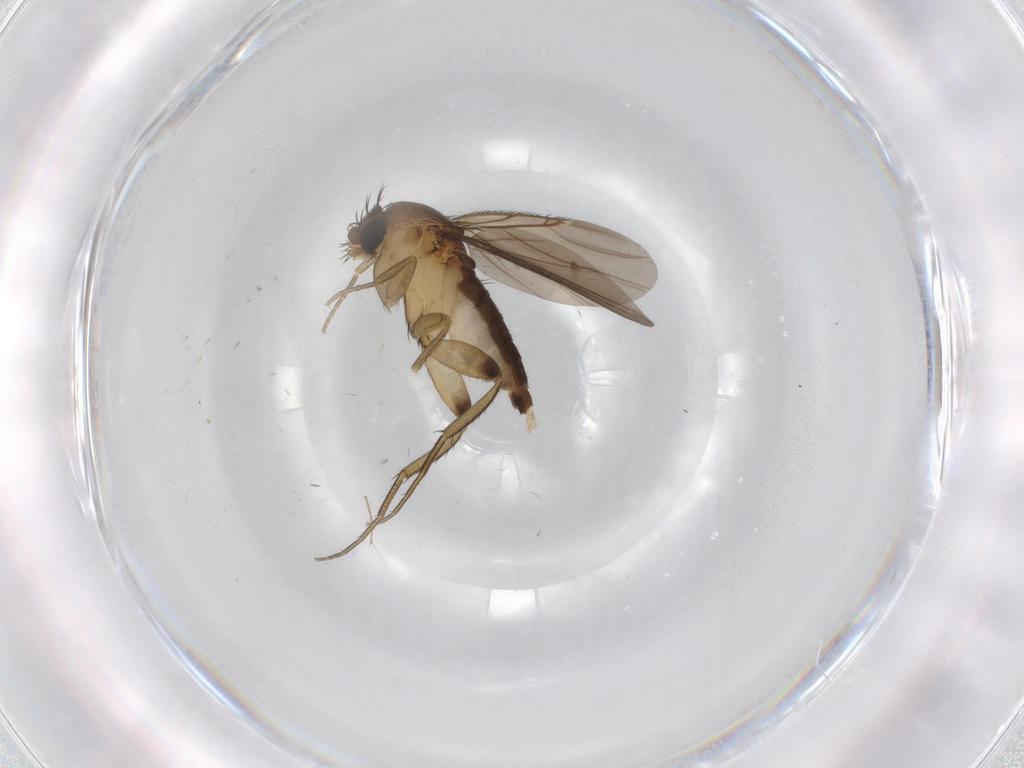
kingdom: Animalia
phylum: Arthropoda
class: Insecta
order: Diptera
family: Phoridae
